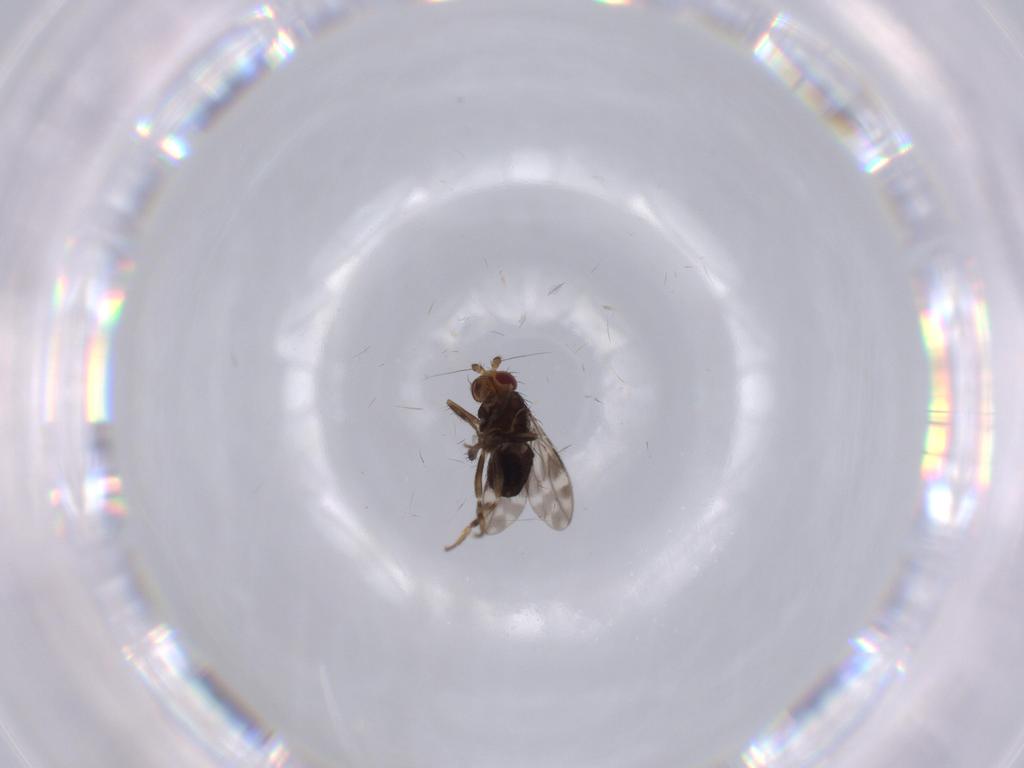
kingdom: Animalia
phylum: Arthropoda
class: Insecta
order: Diptera
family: Sphaeroceridae
